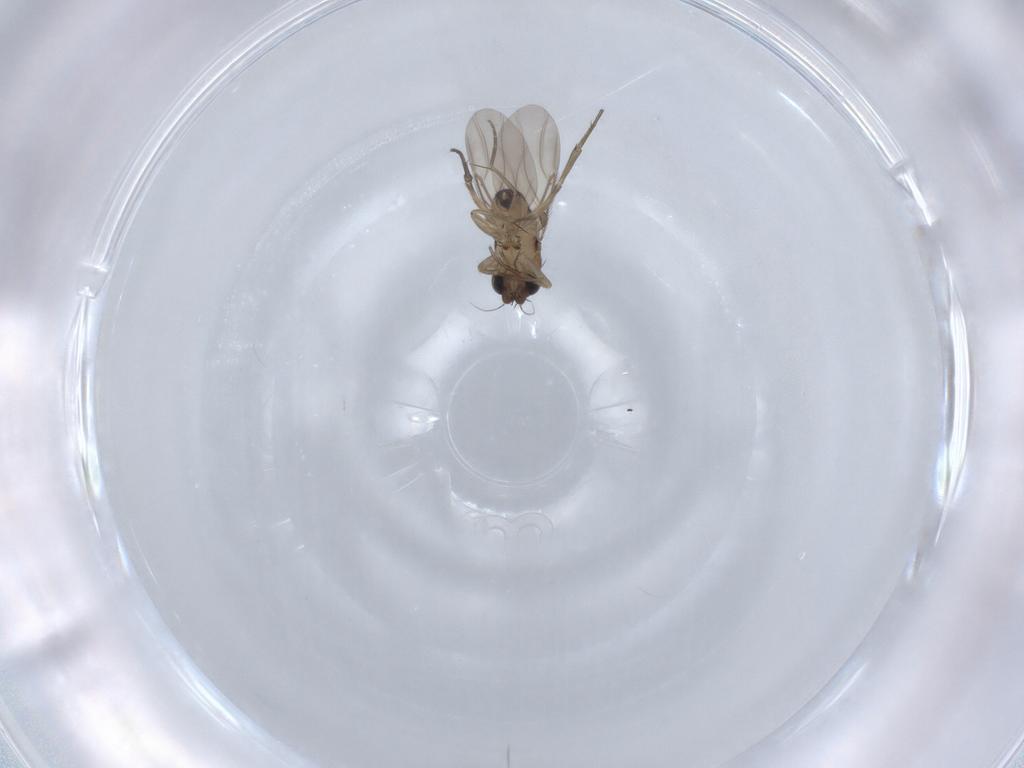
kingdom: Animalia
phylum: Arthropoda
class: Insecta
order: Diptera
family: Phoridae
